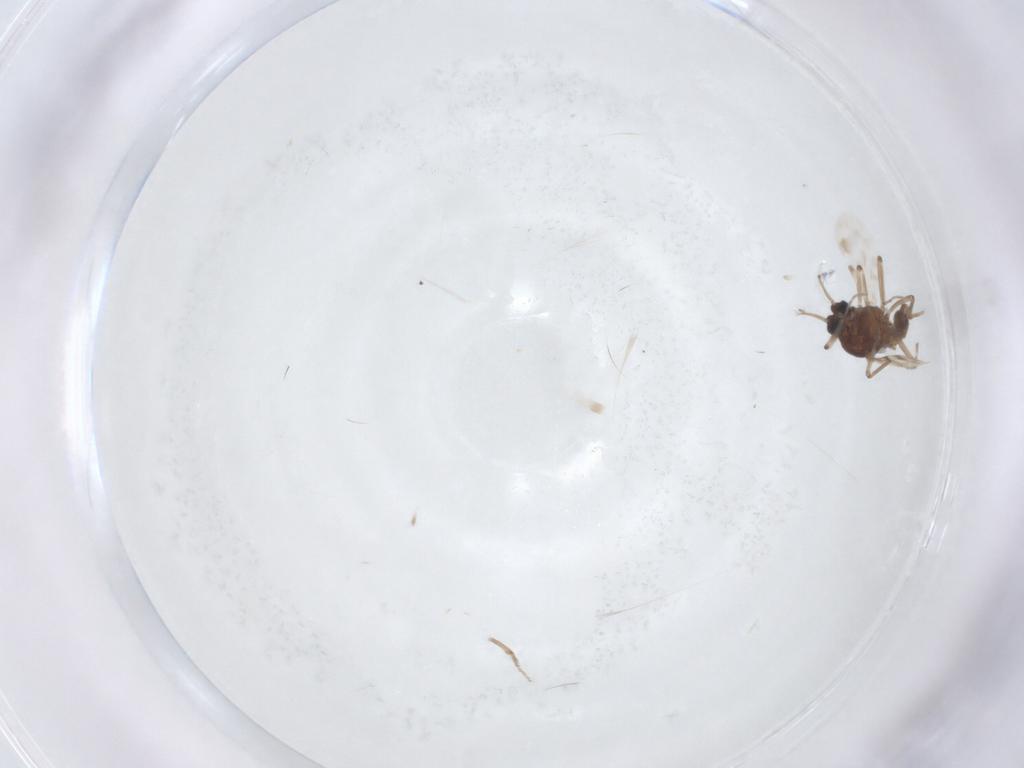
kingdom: Animalia
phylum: Arthropoda
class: Insecta
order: Diptera
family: Ceratopogonidae
